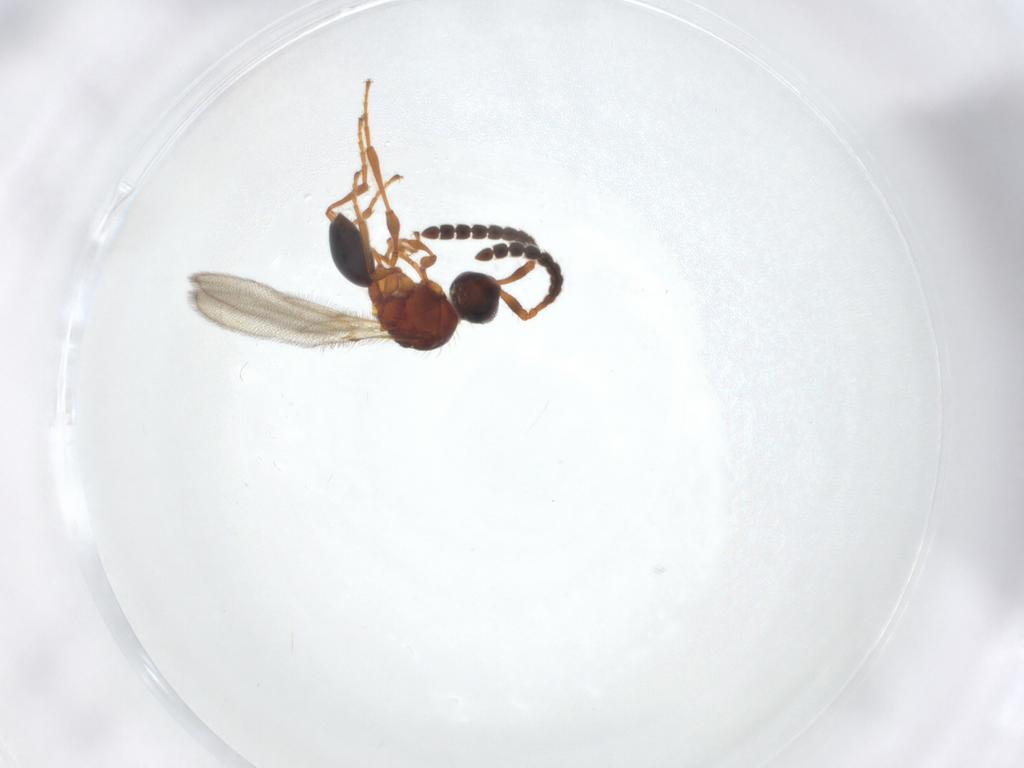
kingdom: Animalia
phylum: Arthropoda
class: Insecta
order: Hymenoptera
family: Diapriidae
